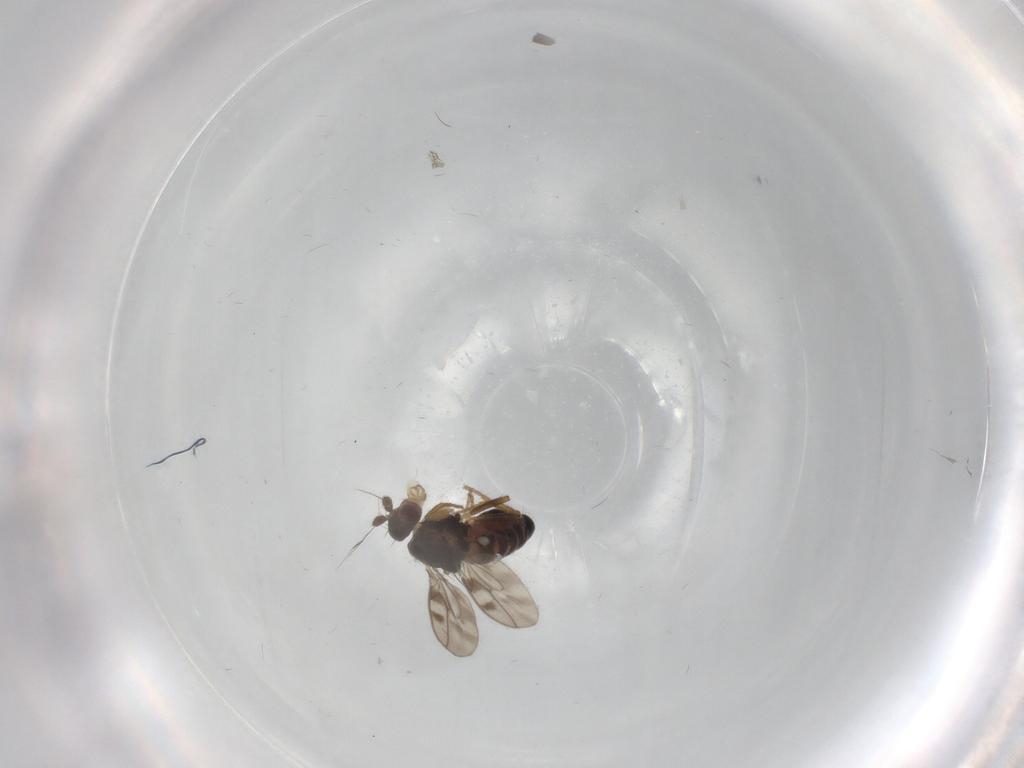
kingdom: Animalia
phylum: Arthropoda
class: Insecta
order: Diptera
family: Sphaeroceridae
